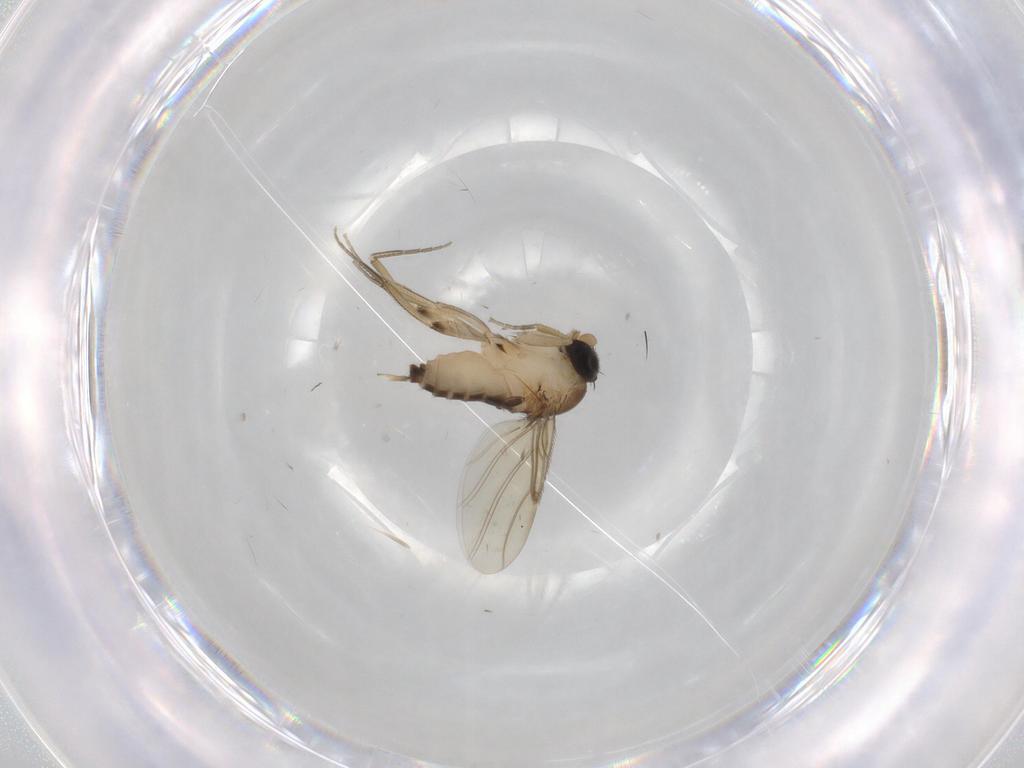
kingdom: Animalia
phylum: Arthropoda
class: Insecta
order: Diptera
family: Phoridae
